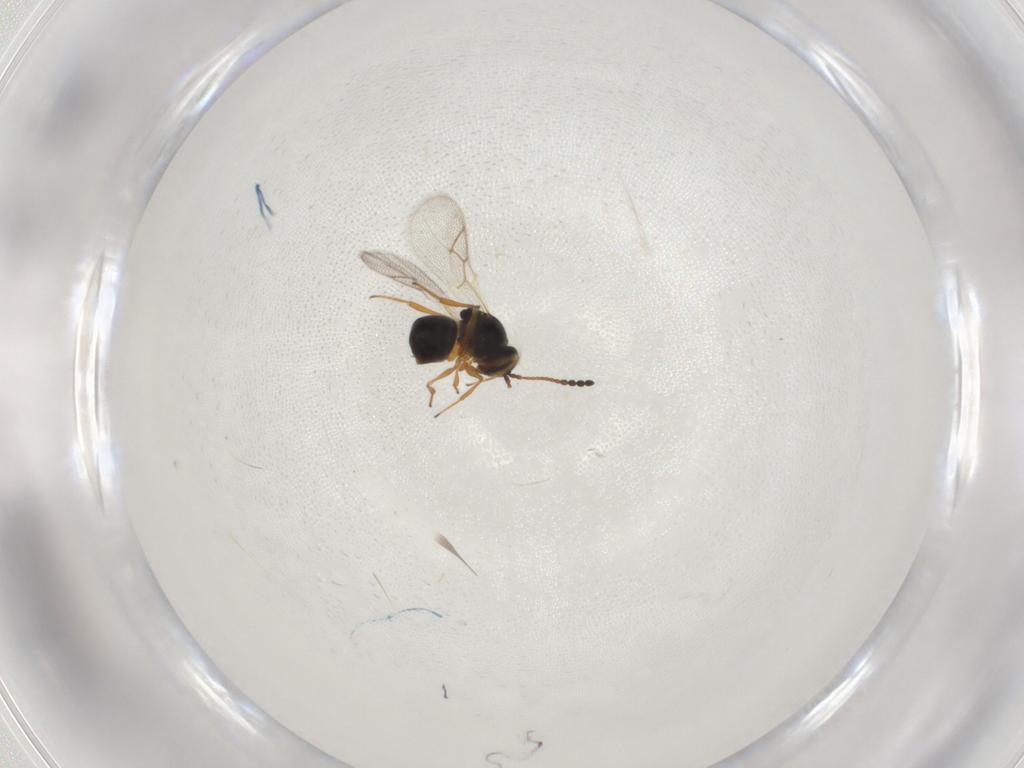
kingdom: Animalia
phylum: Arthropoda
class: Insecta
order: Hymenoptera
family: Figitidae
